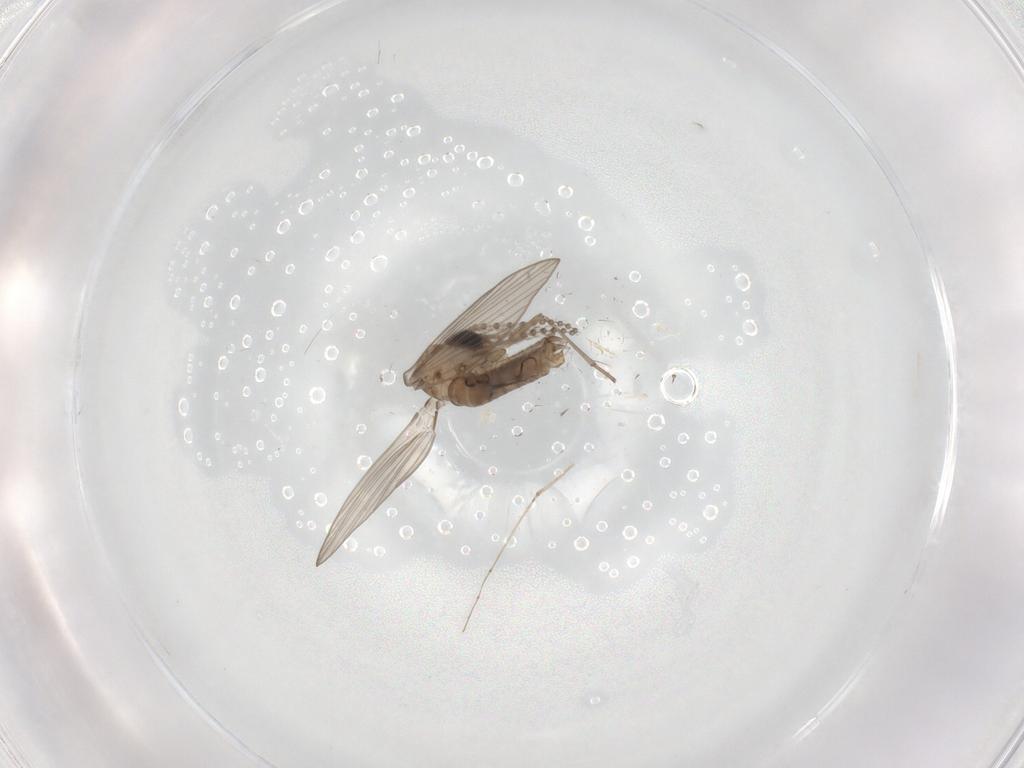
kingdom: Animalia
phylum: Arthropoda
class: Insecta
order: Diptera
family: Psychodidae
